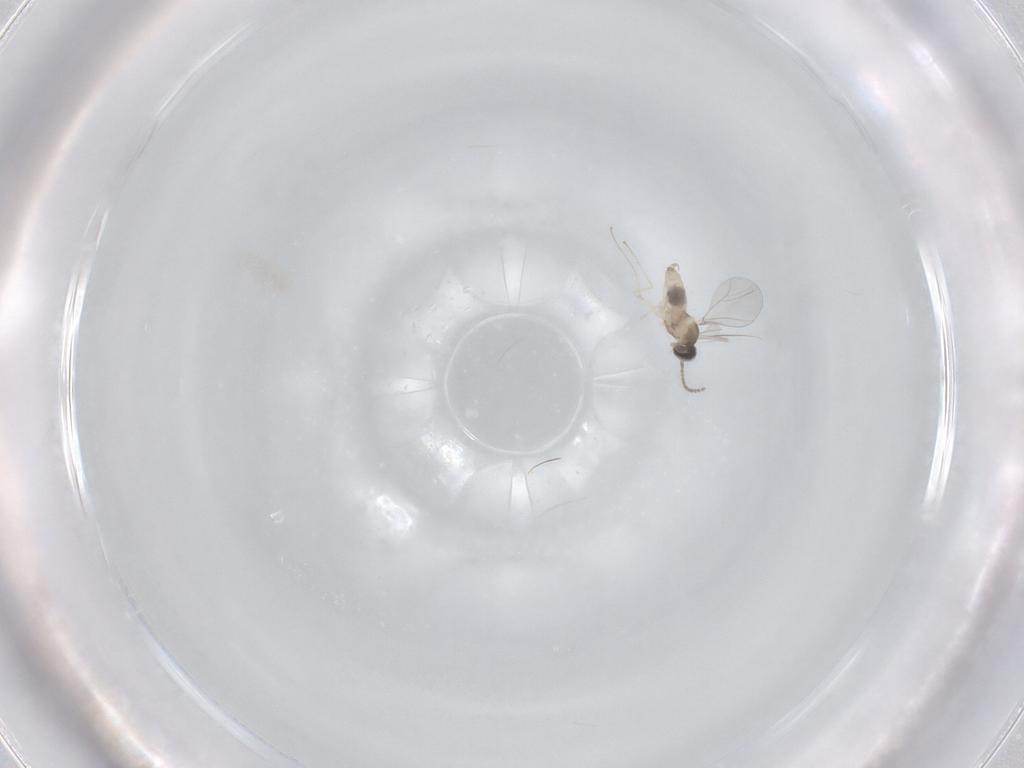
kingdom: Animalia
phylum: Arthropoda
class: Insecta
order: Diptera
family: Cecidomyiidae
